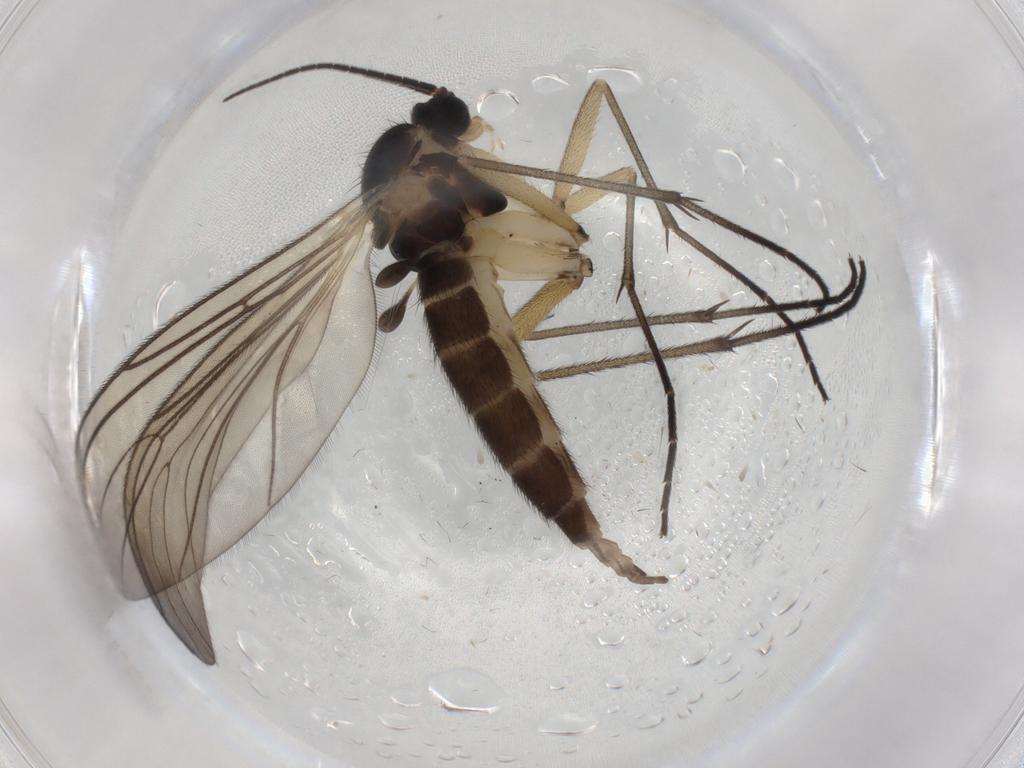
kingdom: Animalia
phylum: Arthropoda
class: Insecta
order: Diptera
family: Sciaridae
